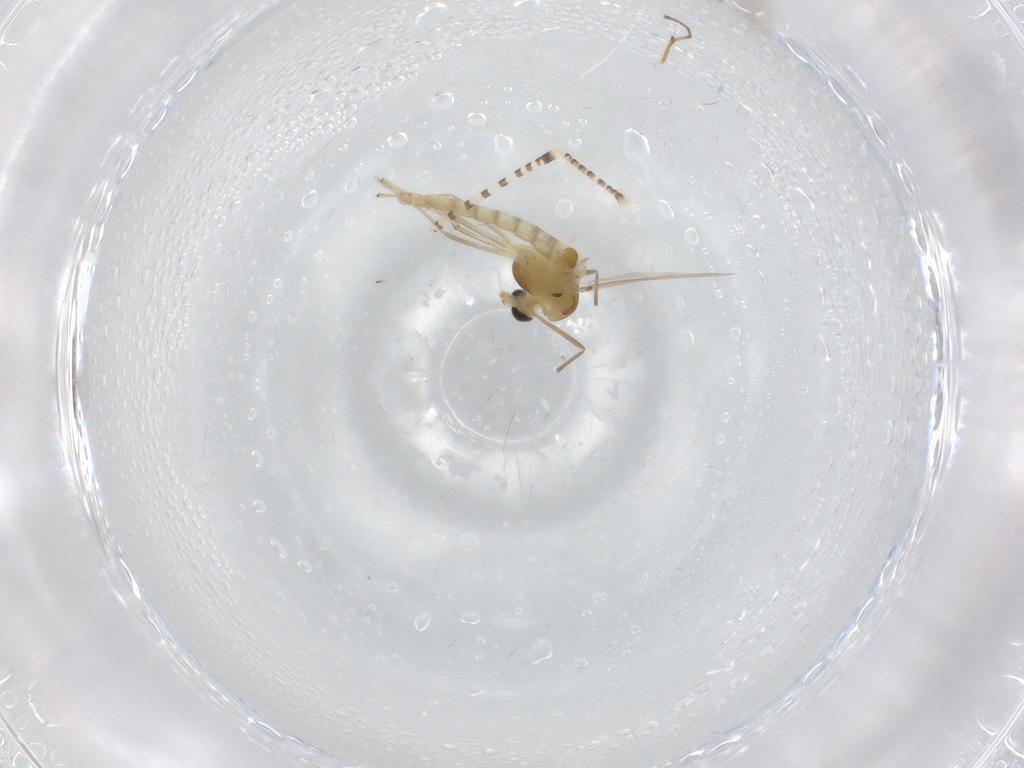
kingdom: Animalia
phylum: Arthropoda
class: Insecta
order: Diptera
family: Chironomidae
